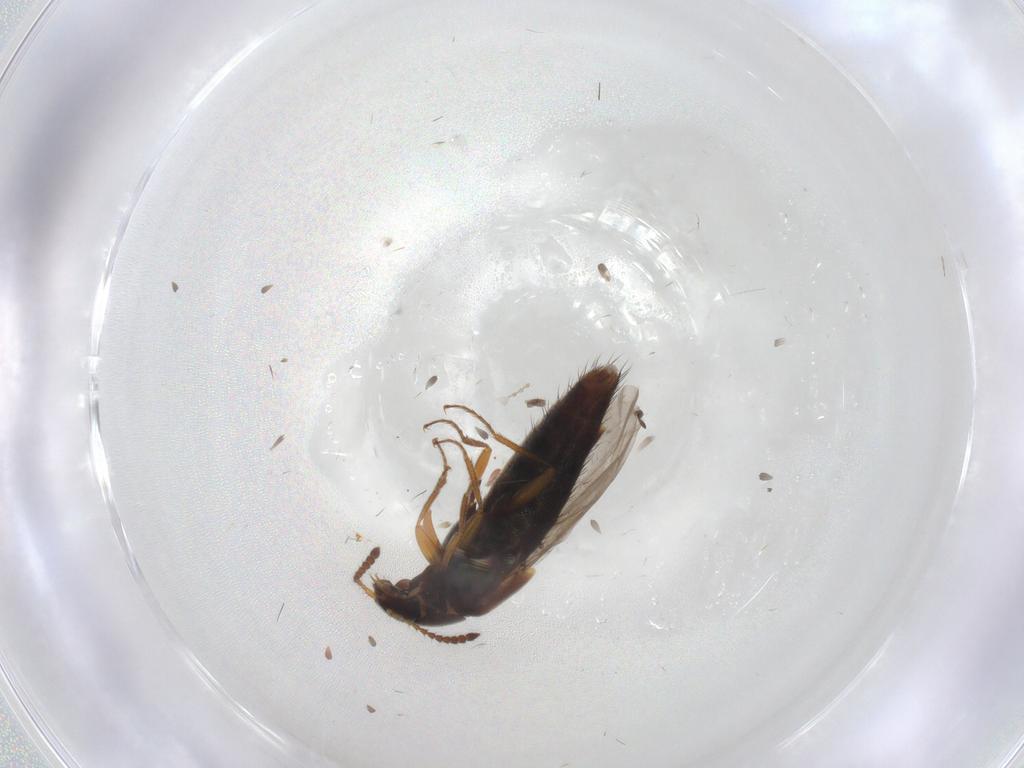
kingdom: Animalia
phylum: Arthropoda
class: Insecta
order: Coleoptera
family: Staphylinidae
